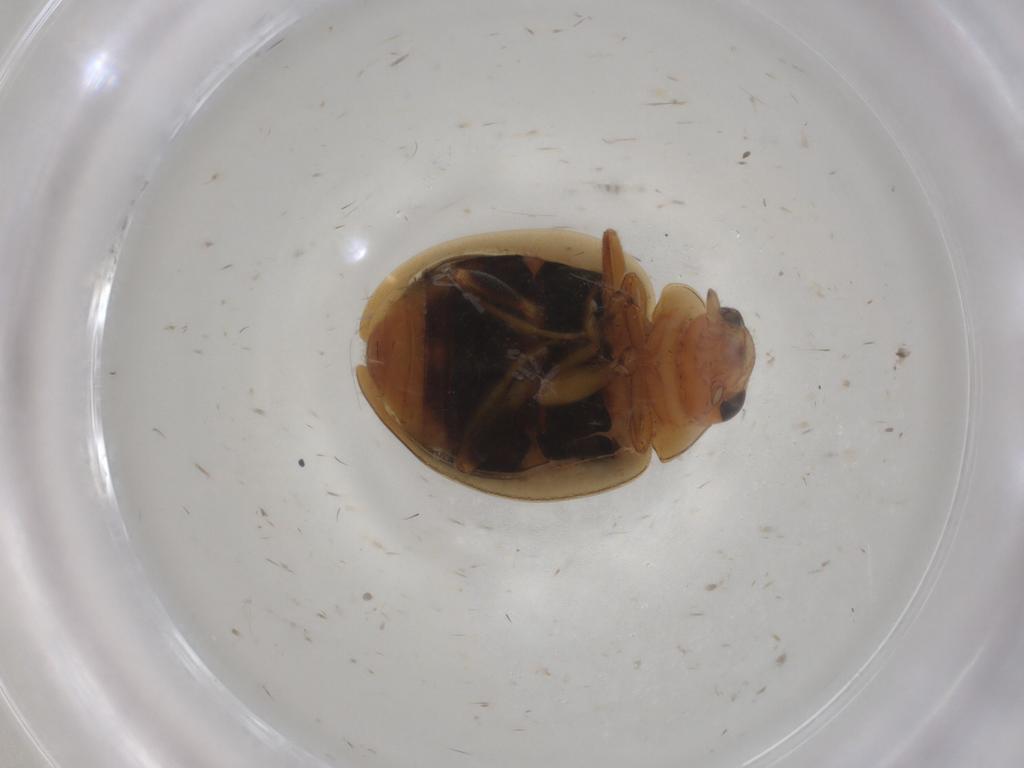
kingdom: Animalia
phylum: Arthropoda
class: Insecta
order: Coleoptera
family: Coccinellidae
